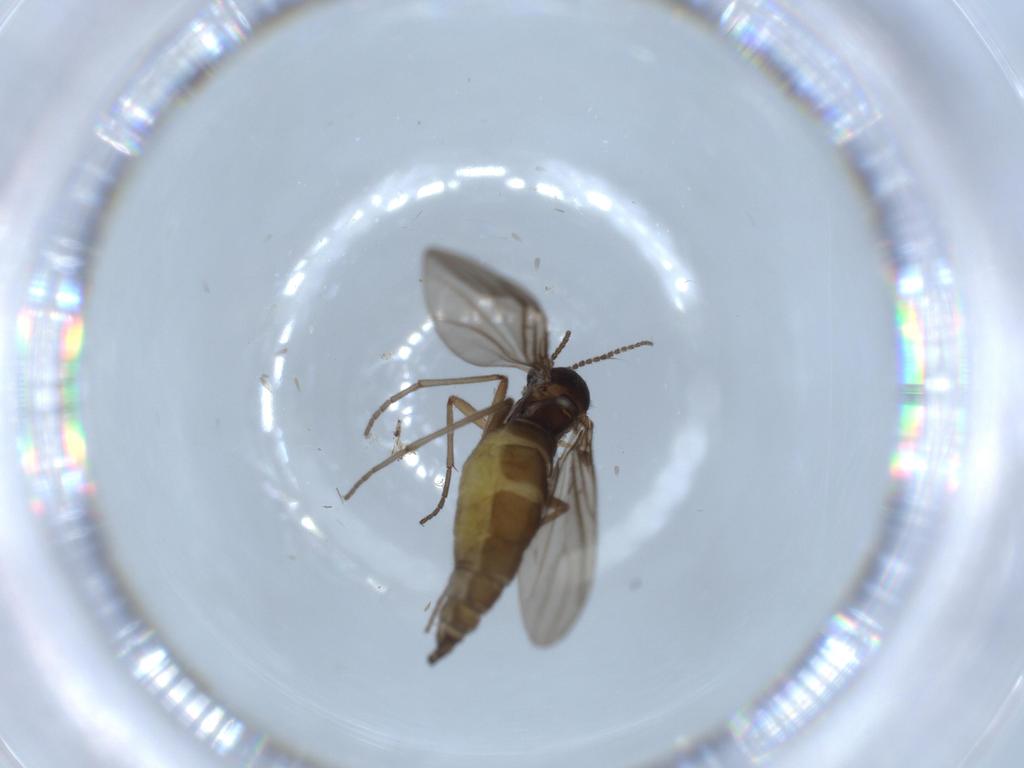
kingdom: Animalia
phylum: Arthropoda
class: Insecta
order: Diptera
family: Sciaridae
